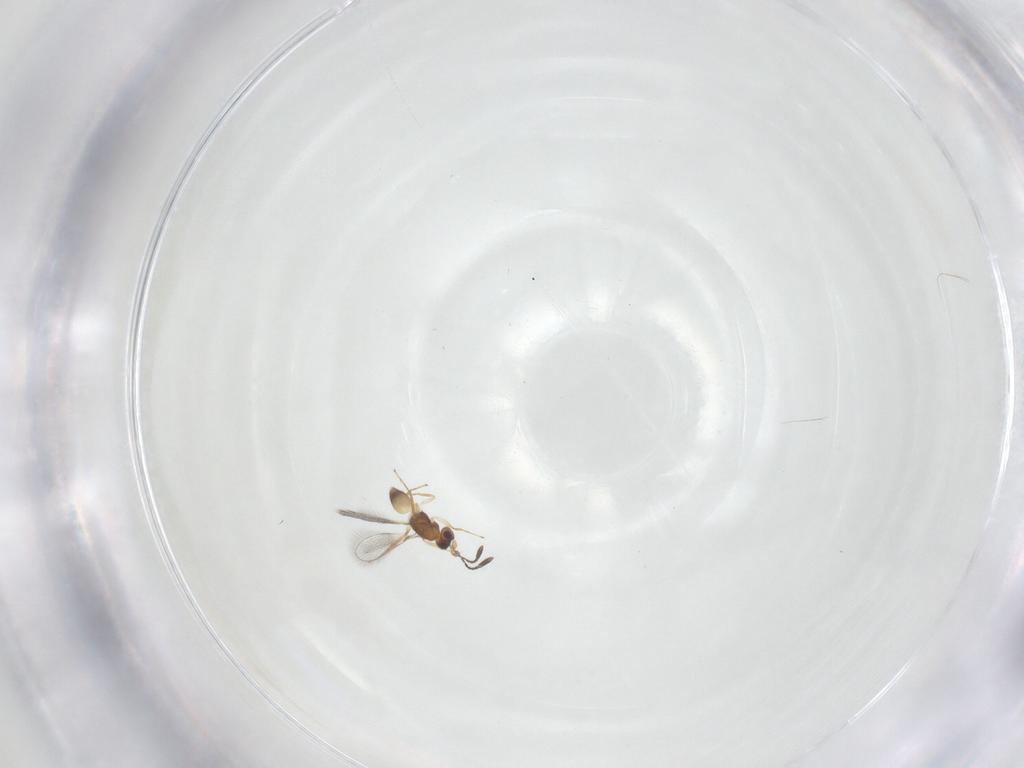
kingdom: Animalia
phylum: Arthropoda
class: Insecta
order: Hymenoptera
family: Mymaridae
